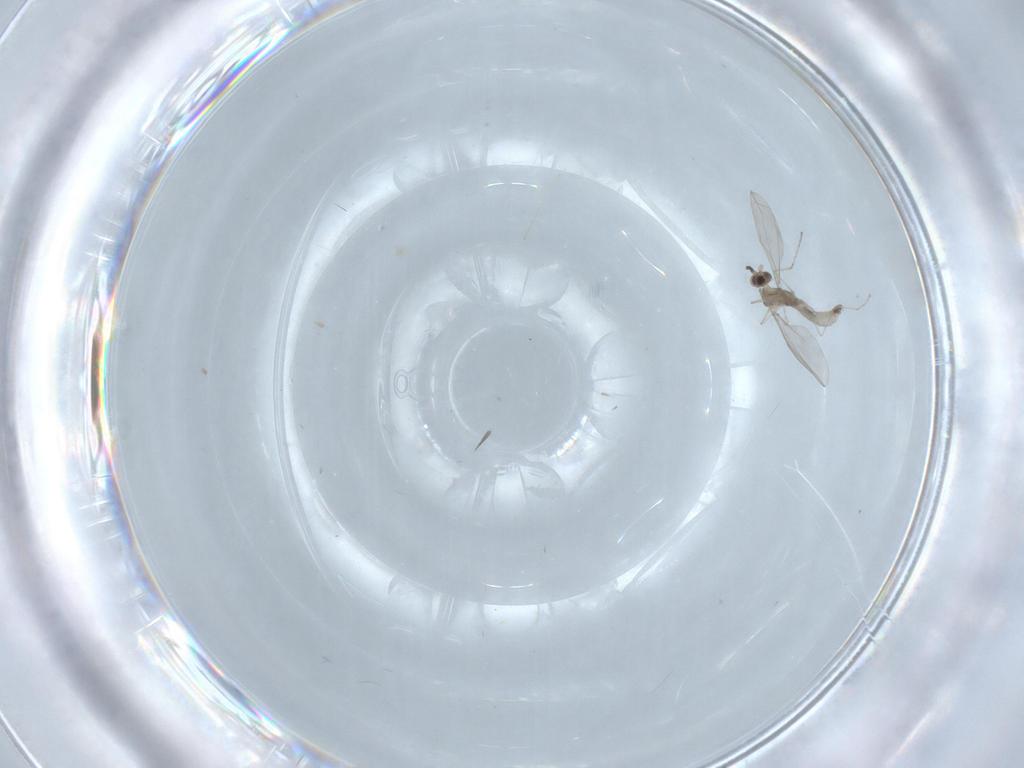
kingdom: Animalia
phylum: Arthropoda
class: Insecta
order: Diptera
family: Cecidomyiidae
